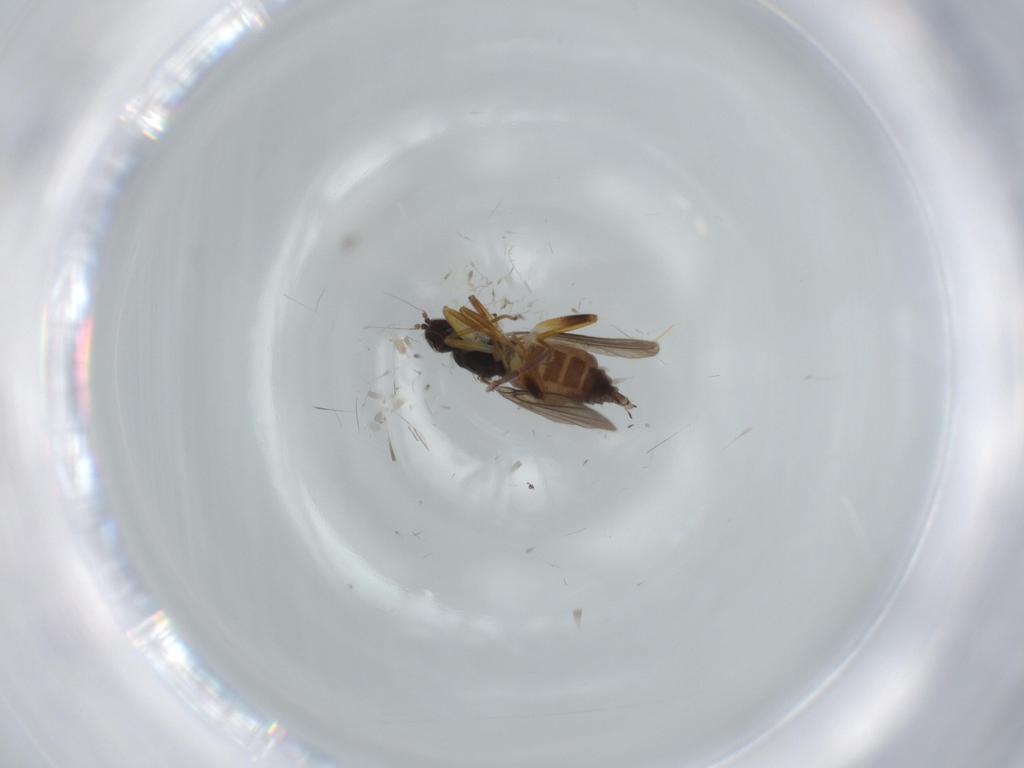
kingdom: Animalia
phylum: Arthropoda
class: Insecta
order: Diptera
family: Hybotidae
